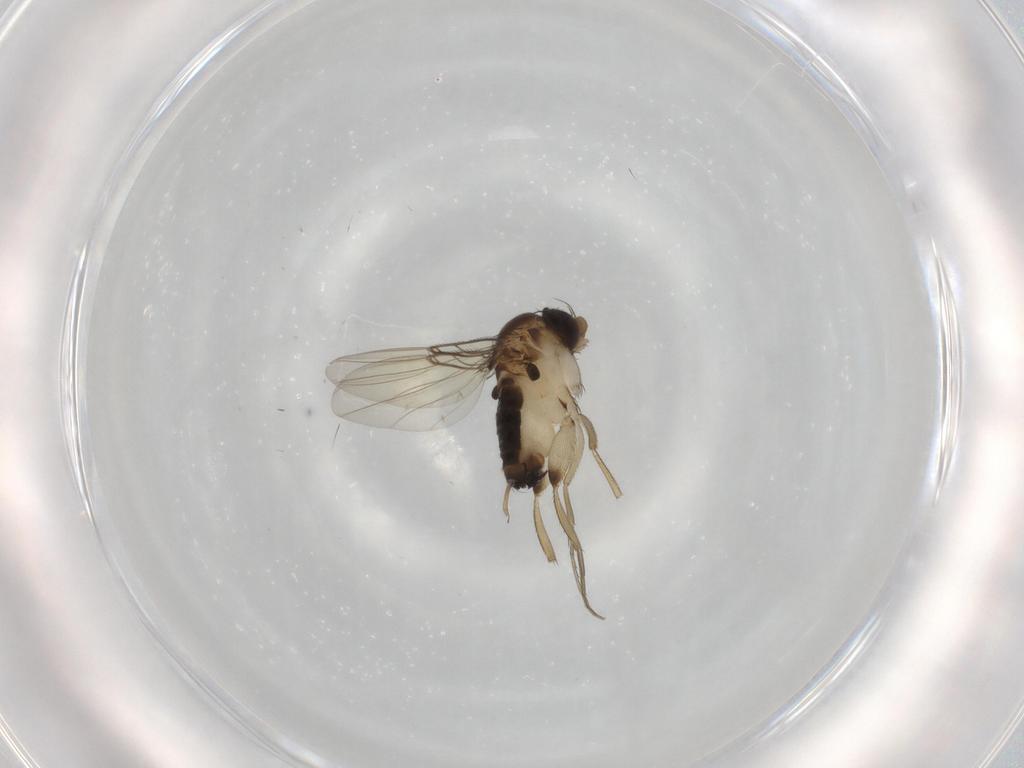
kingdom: Animalia
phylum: Arthropoda
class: Insecta
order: Diptera
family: Phoridae
